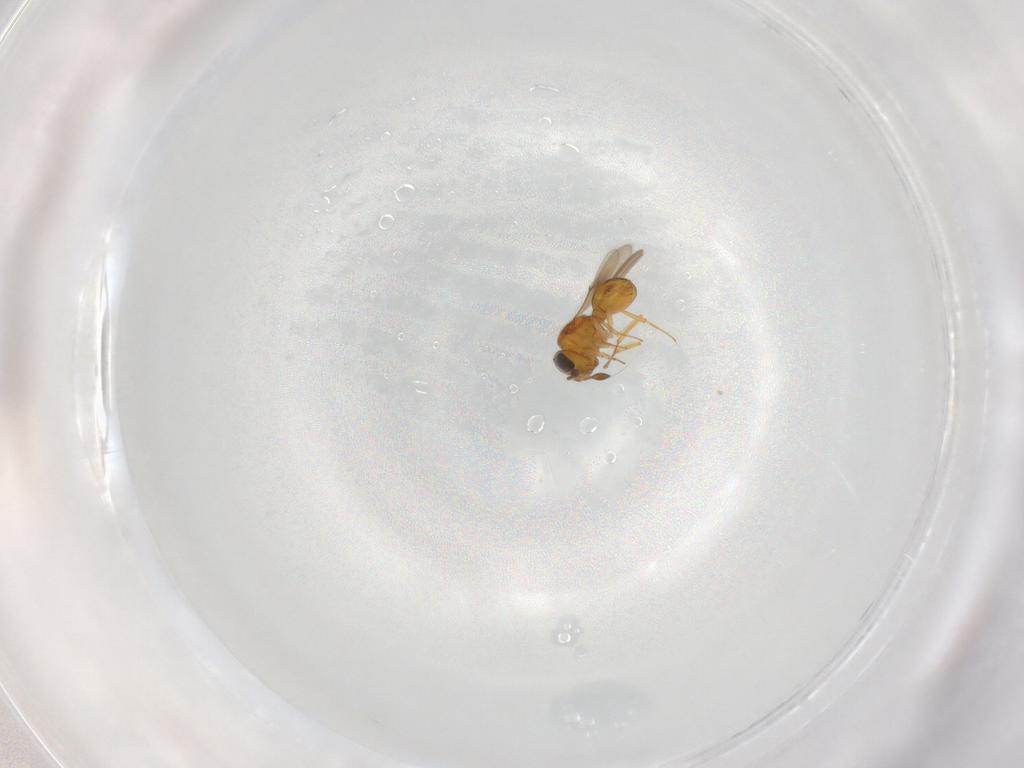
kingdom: Animalia
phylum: Arthropoda
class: Insecta
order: Hymenoptera
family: Scelionidae
